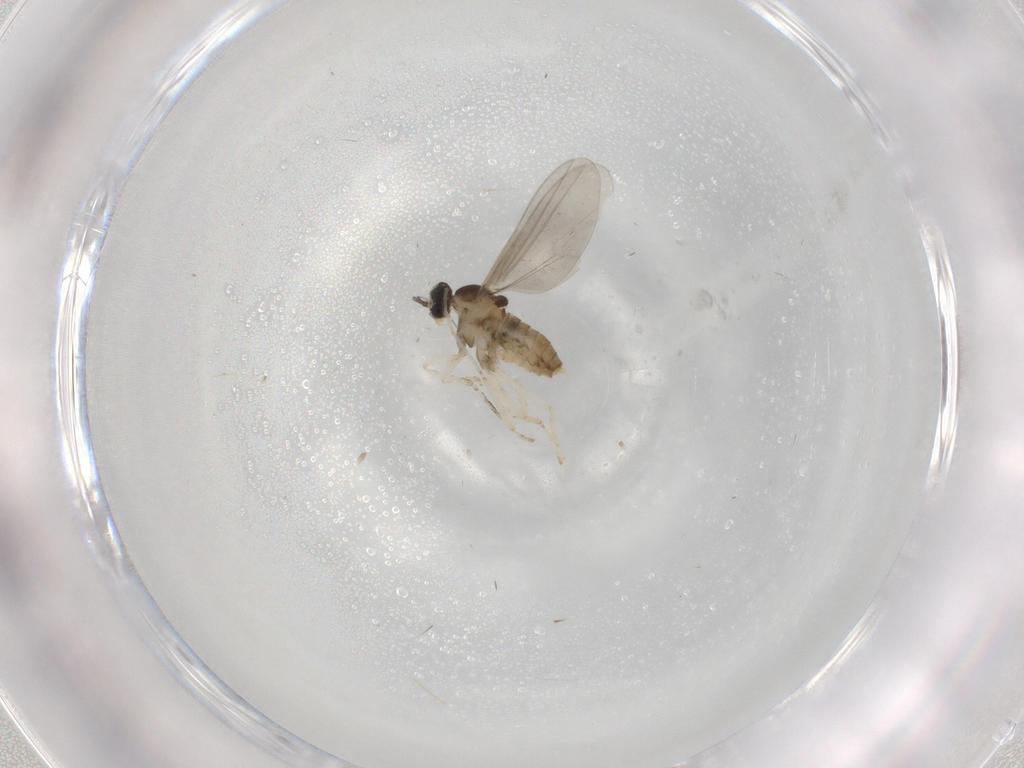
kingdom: Animalia
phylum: Arthropoda
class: Insecta
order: Diptera
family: Cecidomyiidae
